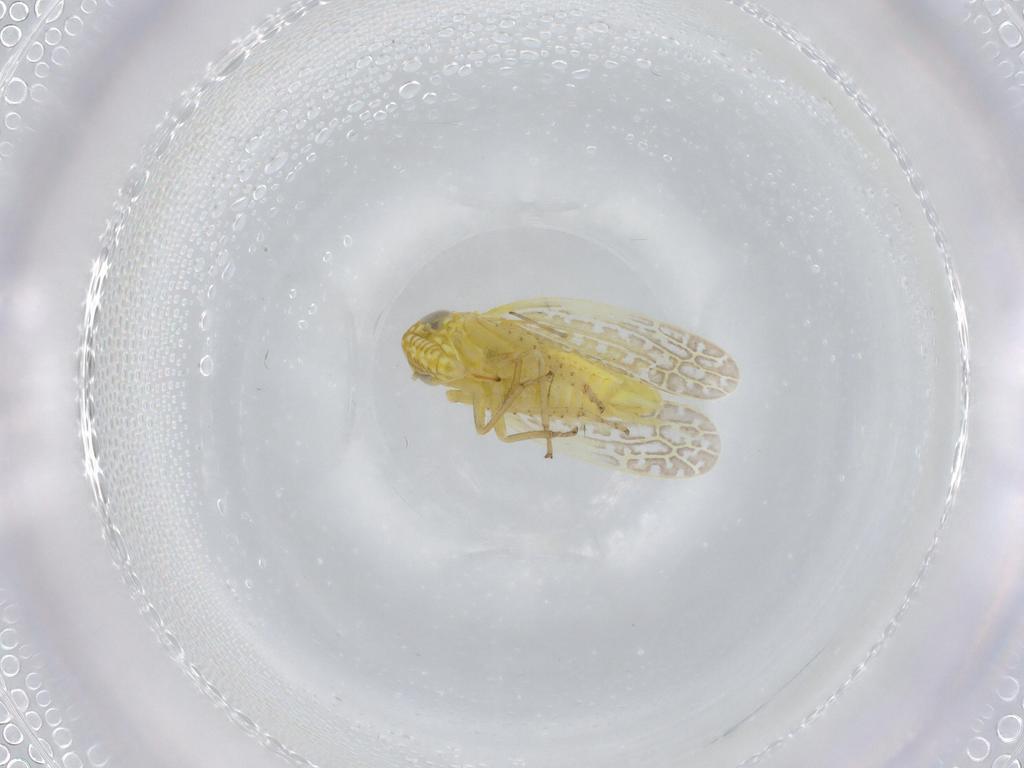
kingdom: Animalia
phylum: Arthropoda
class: Insecta
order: Hemiptera
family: Cicadellidae
